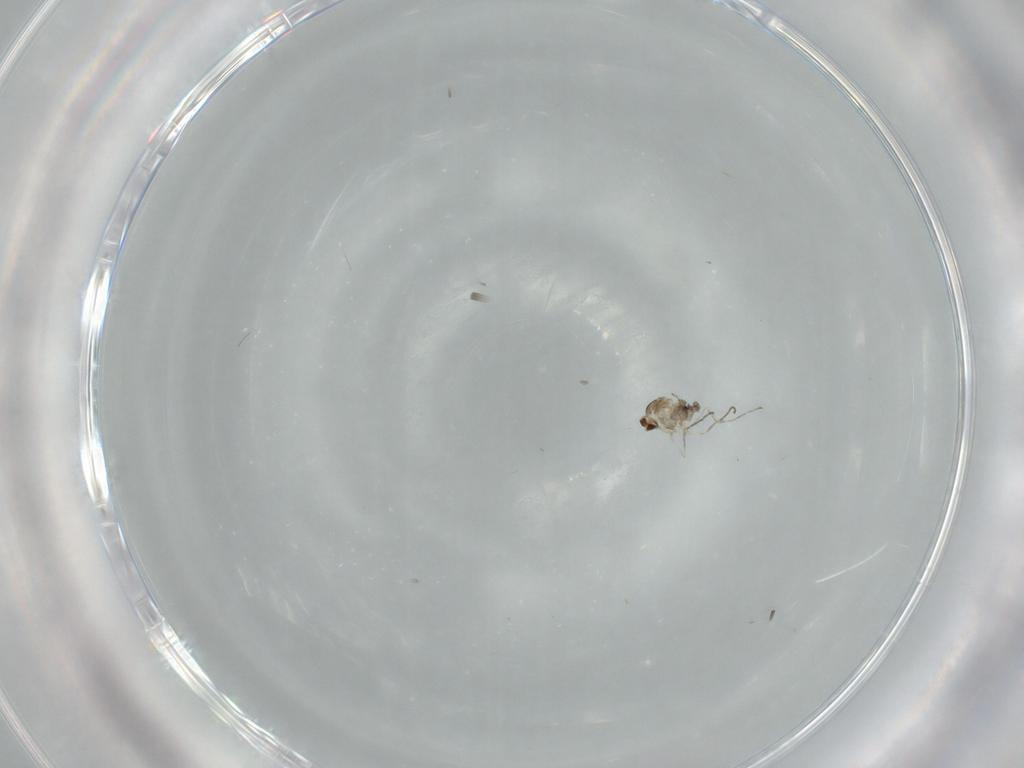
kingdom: Animalia
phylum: Arthropoda
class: Insecta
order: Diptera
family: Cecidomyiidae
